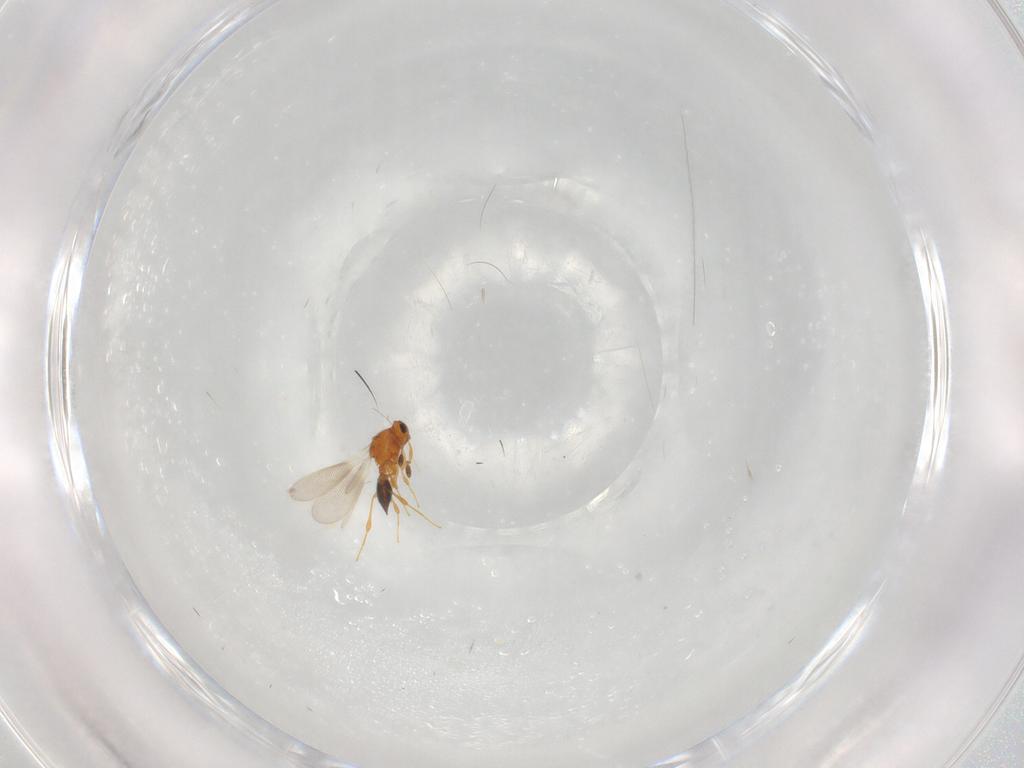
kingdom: Animalia
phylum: Arthropoda
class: Insecta
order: Hymenoptera
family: Platygastridae
